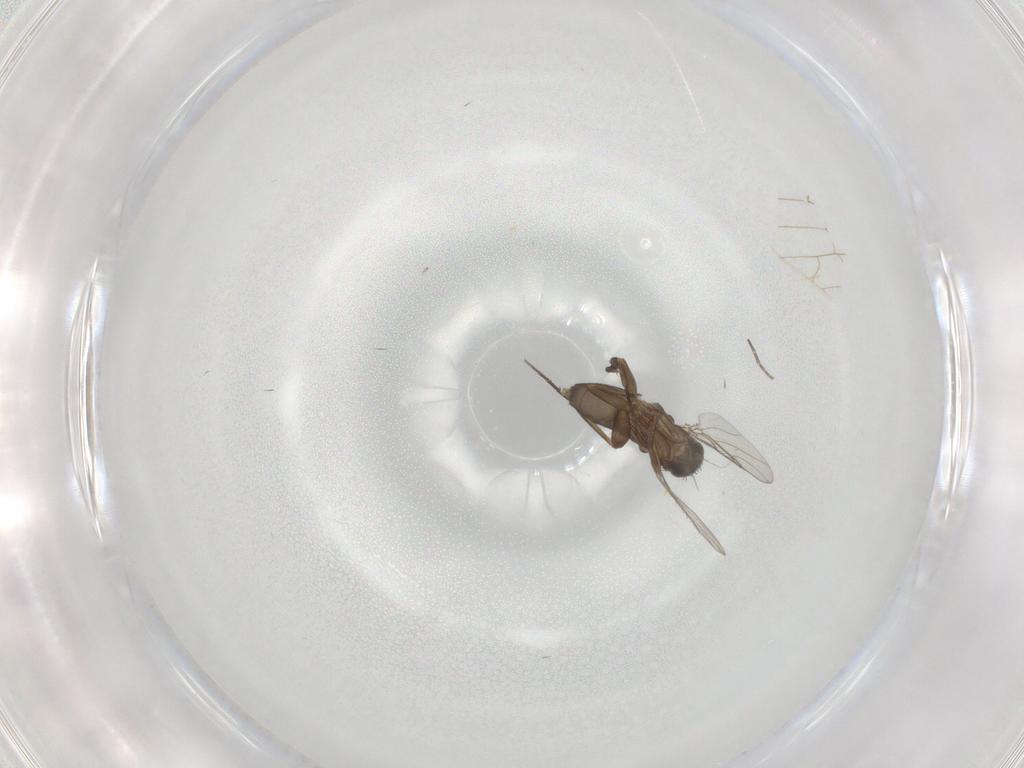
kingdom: Animalia
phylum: Arthropoda
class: Insecta
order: Diptera
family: Phoridae
